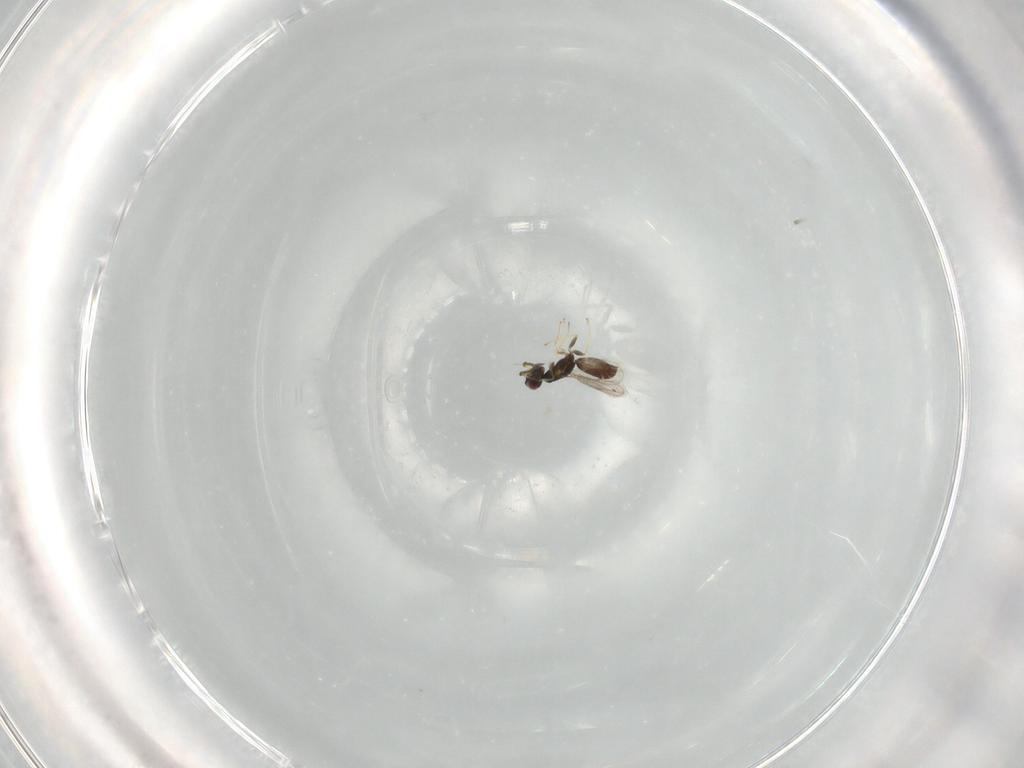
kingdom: Animalia
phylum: Arthropoda
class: Insecta
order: Hymenoptera
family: Eulophidae
